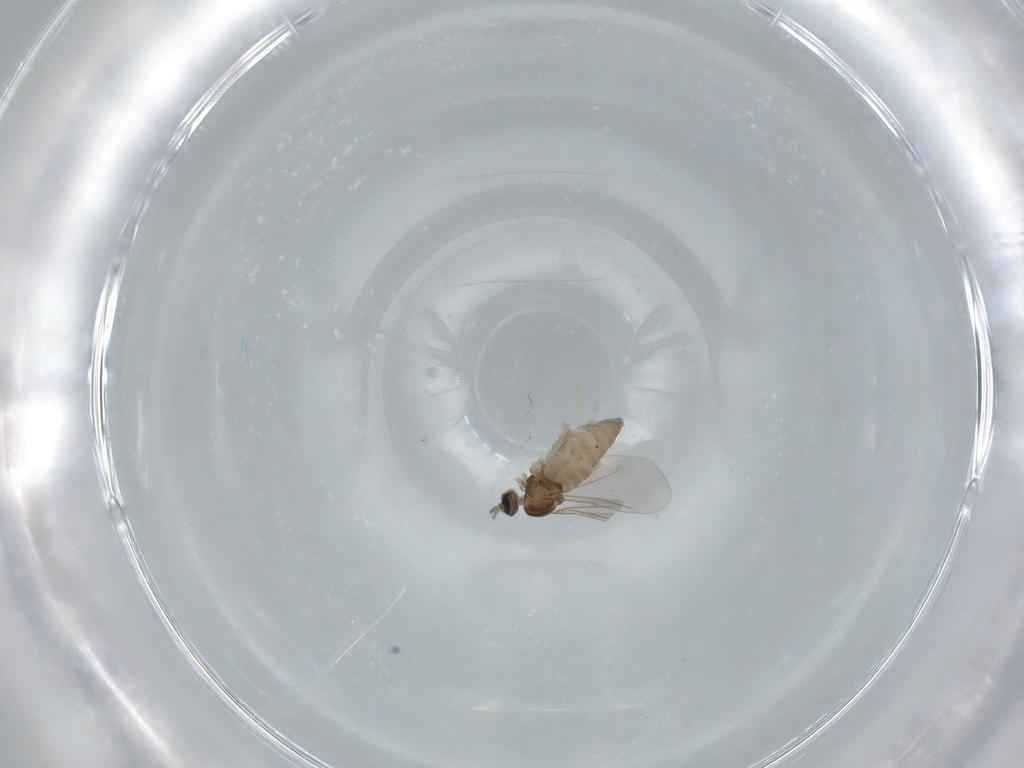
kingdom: Animalia
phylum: Arthropoda
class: Insecta
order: Diptera
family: Cecidomyiidae
